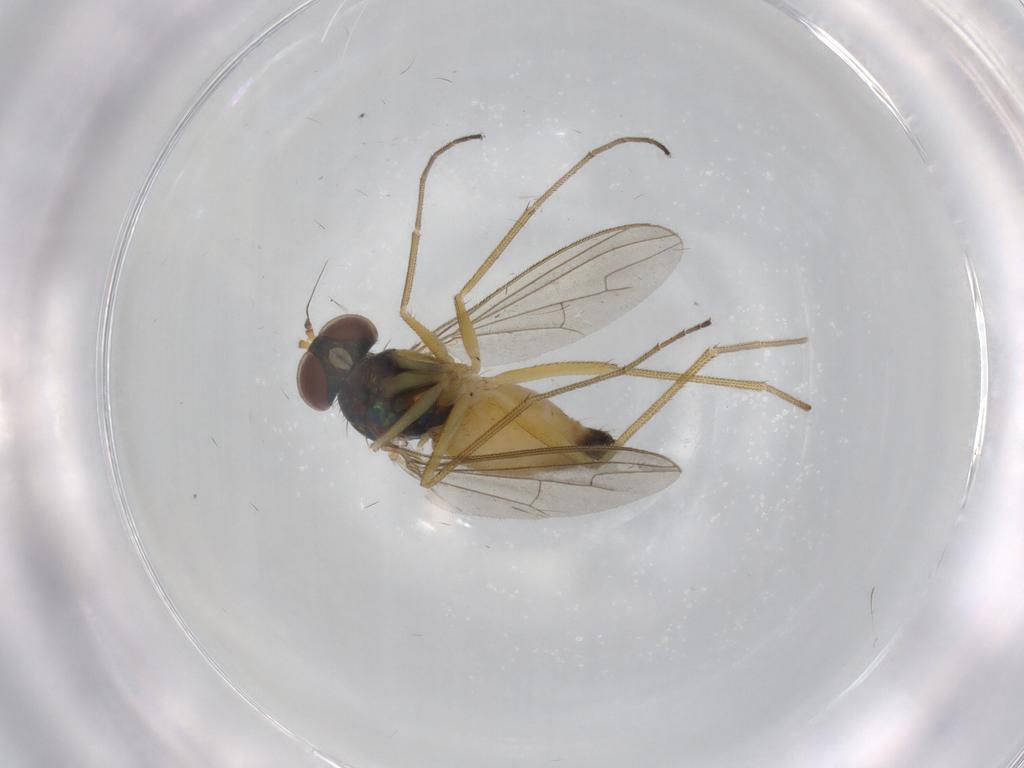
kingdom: Animalia
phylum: Arthropoda
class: Insecta
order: Diptera
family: Dolichopodidae
